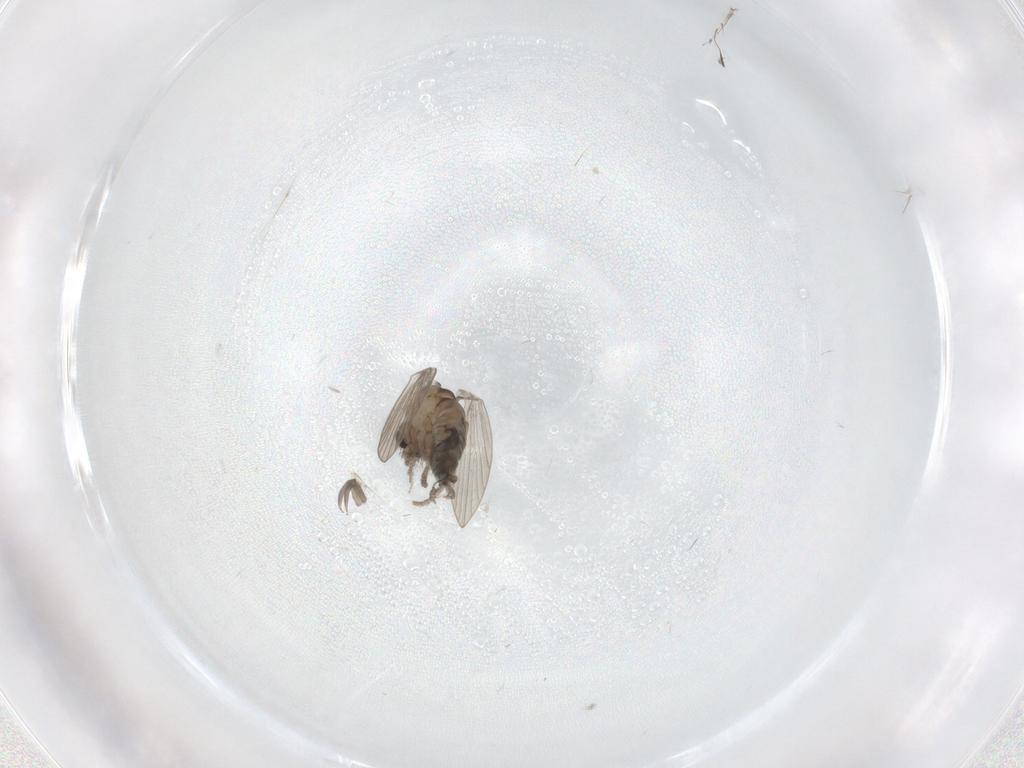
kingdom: Animalia
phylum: Arthropoda
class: Insecta
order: Diptera
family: Psychodidae
